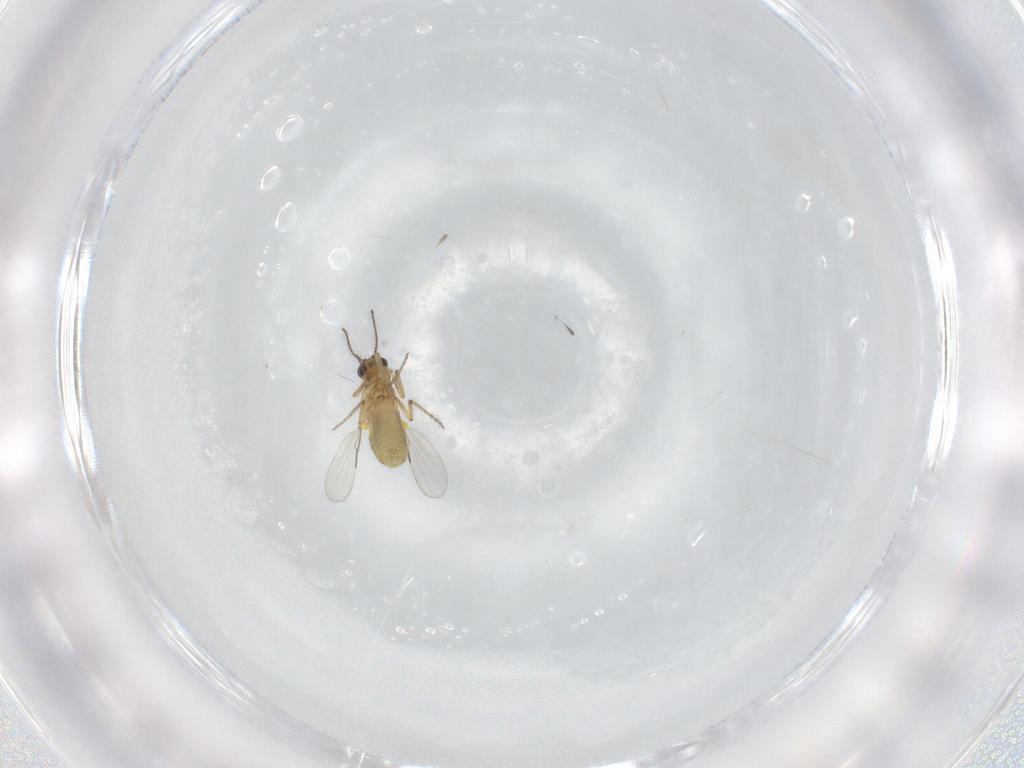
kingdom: Animalia
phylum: Arthropoda
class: Insecta
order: Diptera
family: Ceratopogonidae
